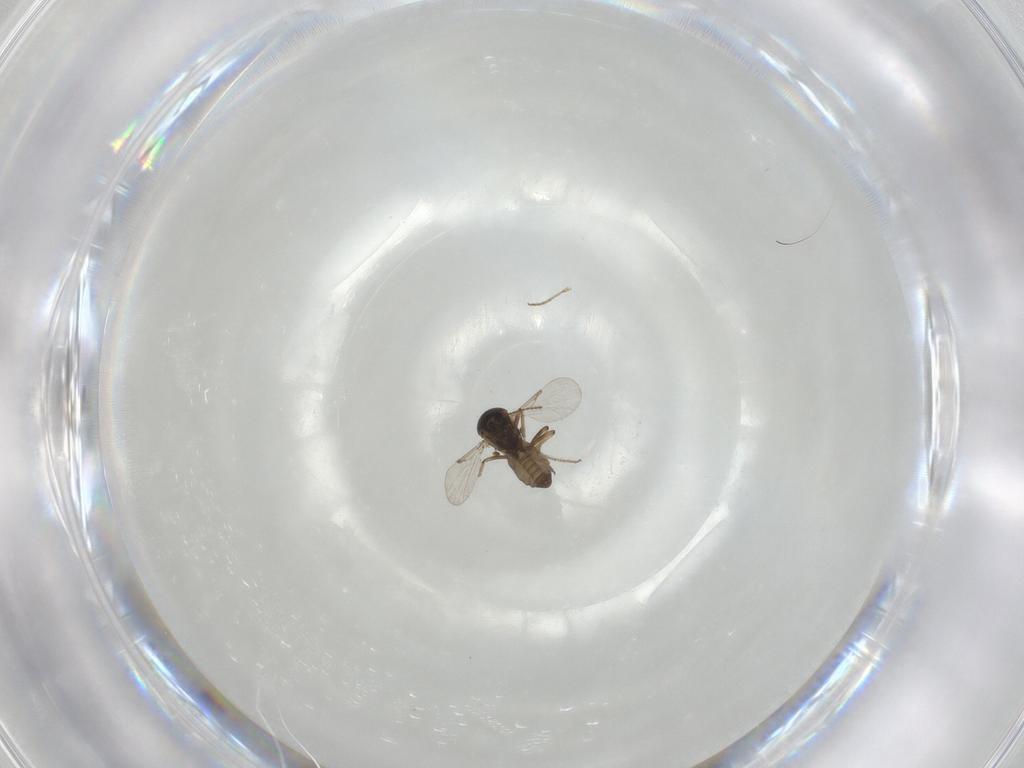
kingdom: Animalia
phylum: Arthropoda
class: Insecta
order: Diptera
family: Ceratopogonidae
